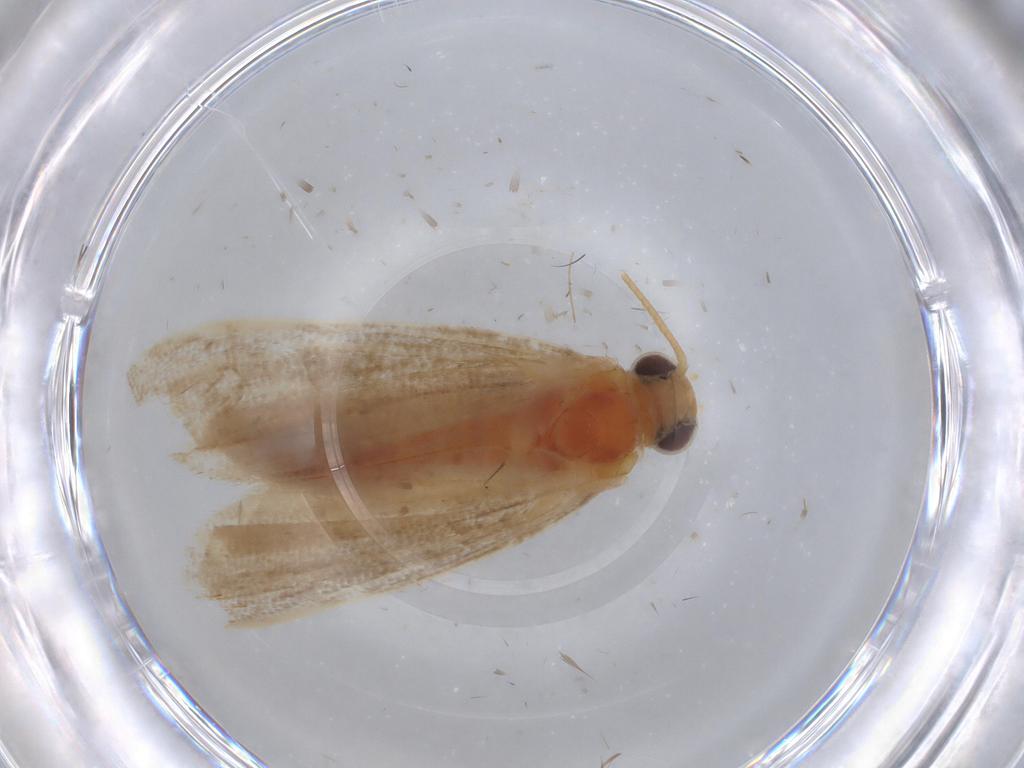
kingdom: Animalia
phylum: Arthropoda
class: Insecta
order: Lepidoptera
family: Pyralidae
